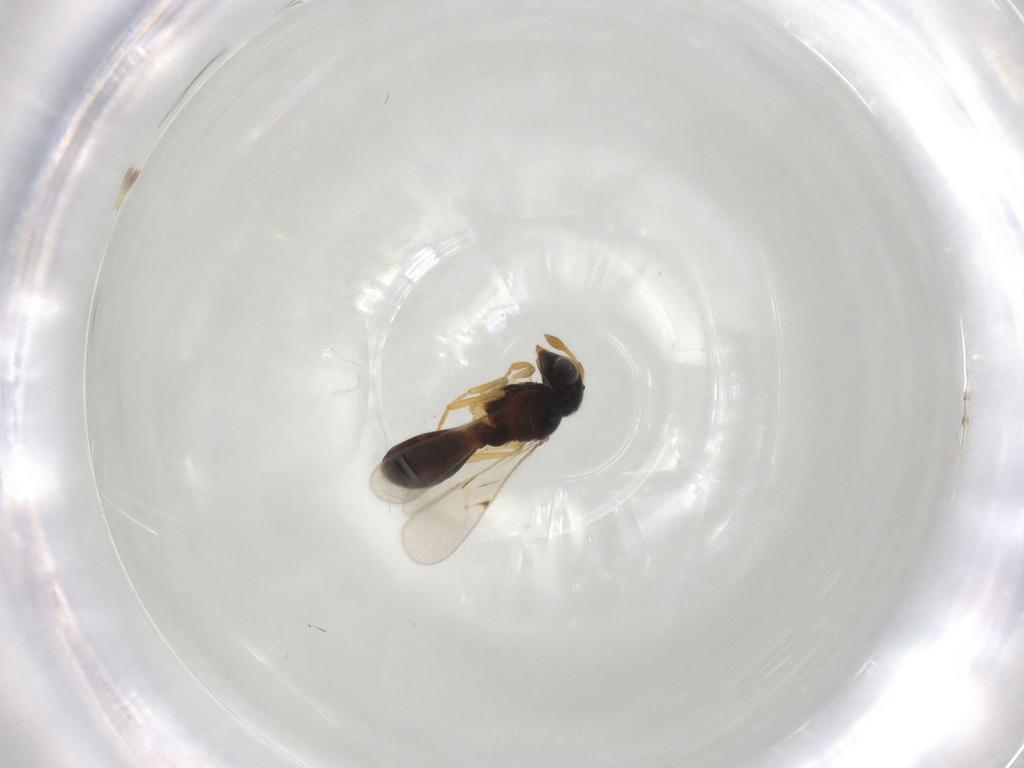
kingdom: Animalia
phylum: Arthropoda
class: Insecta
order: Hymenoptera
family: Scelionidae
